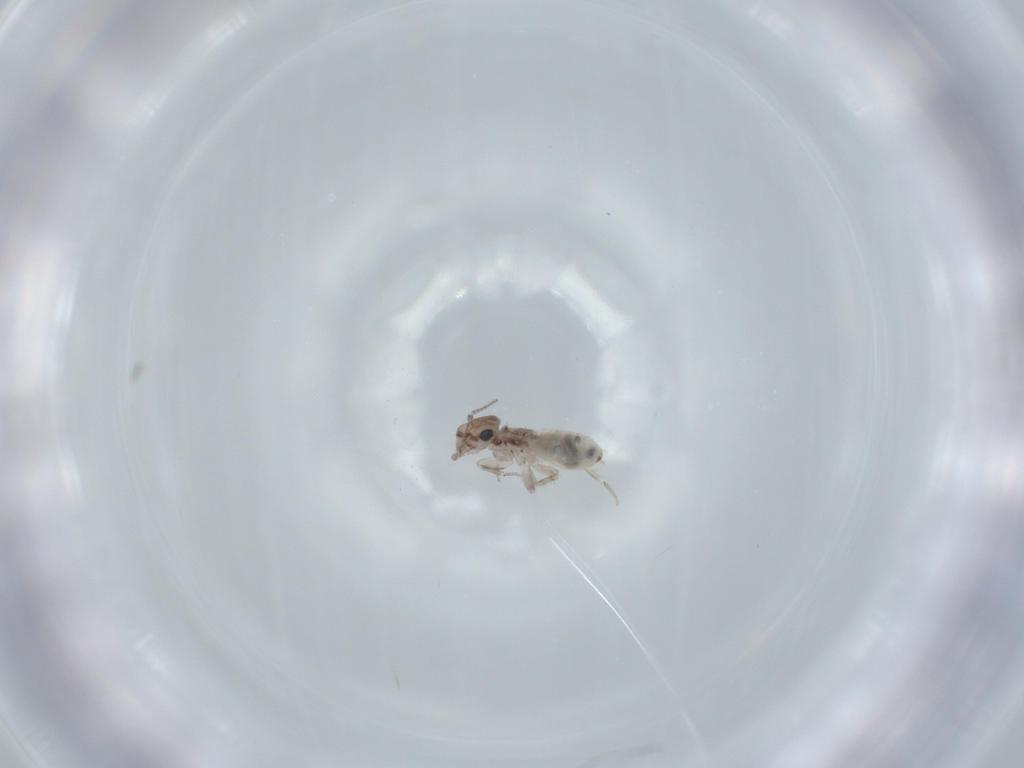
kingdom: Animalia
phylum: Arthropoda
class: Insecta
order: Psocodea
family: Lepidopsocidae
